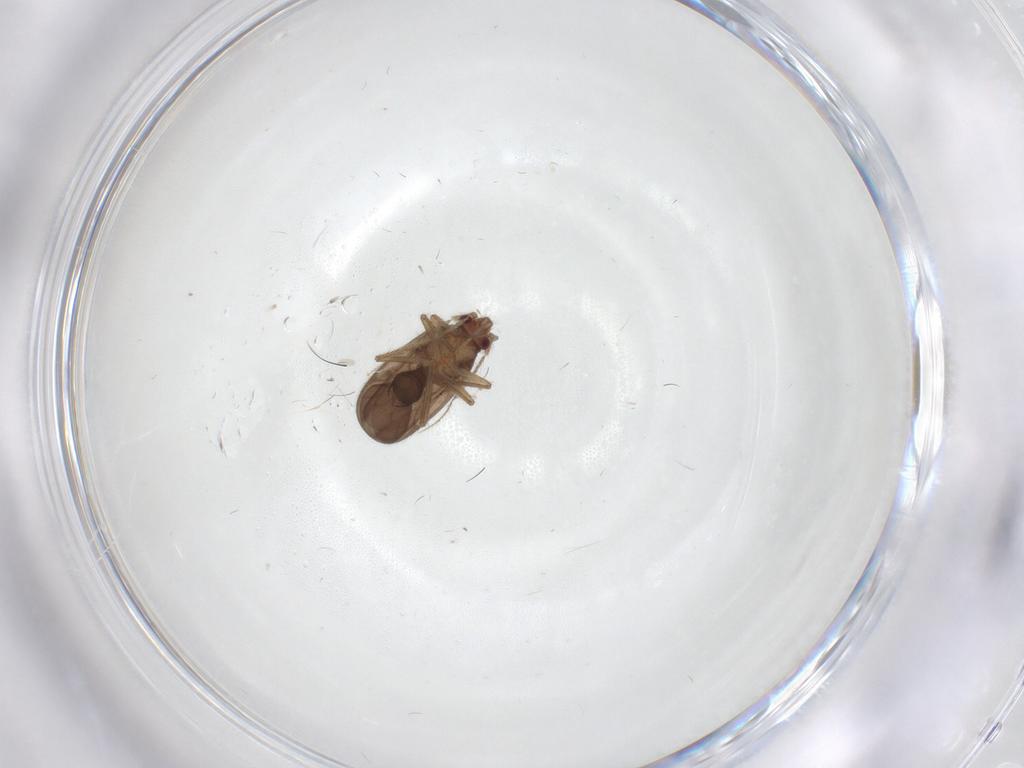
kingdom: Animalia
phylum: Arthropoda
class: Insecta
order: Hemiptera
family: Ceratocombidae
